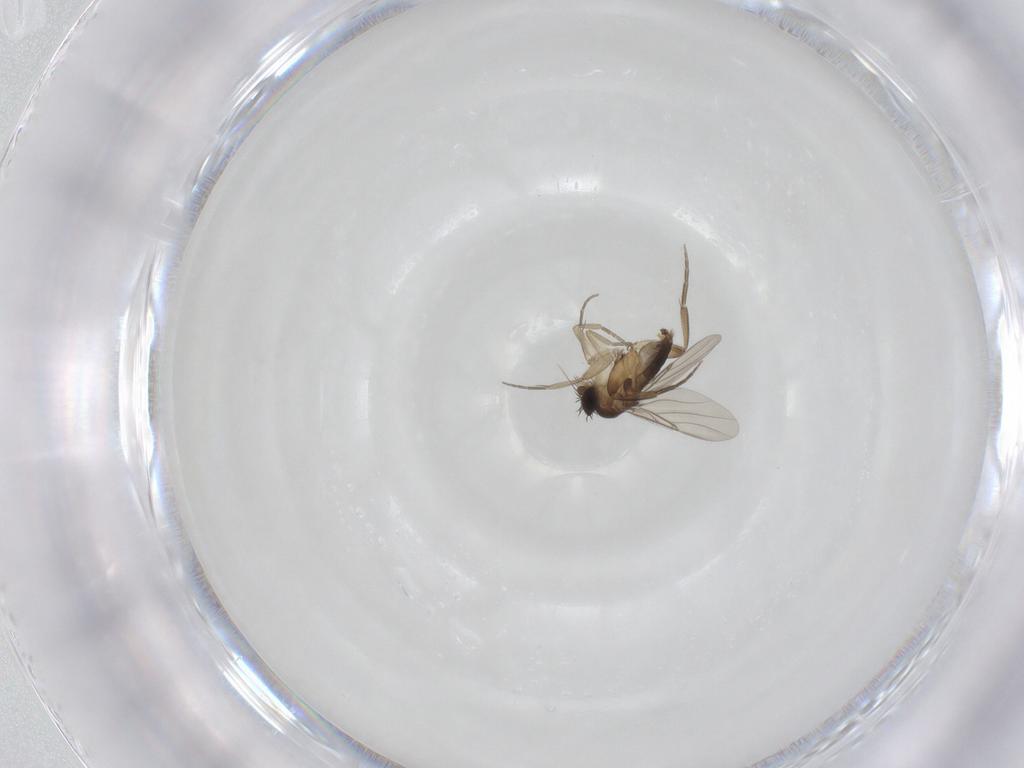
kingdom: Animalia
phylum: Arthropoda
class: Insecta
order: Diptera
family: Phoridae
